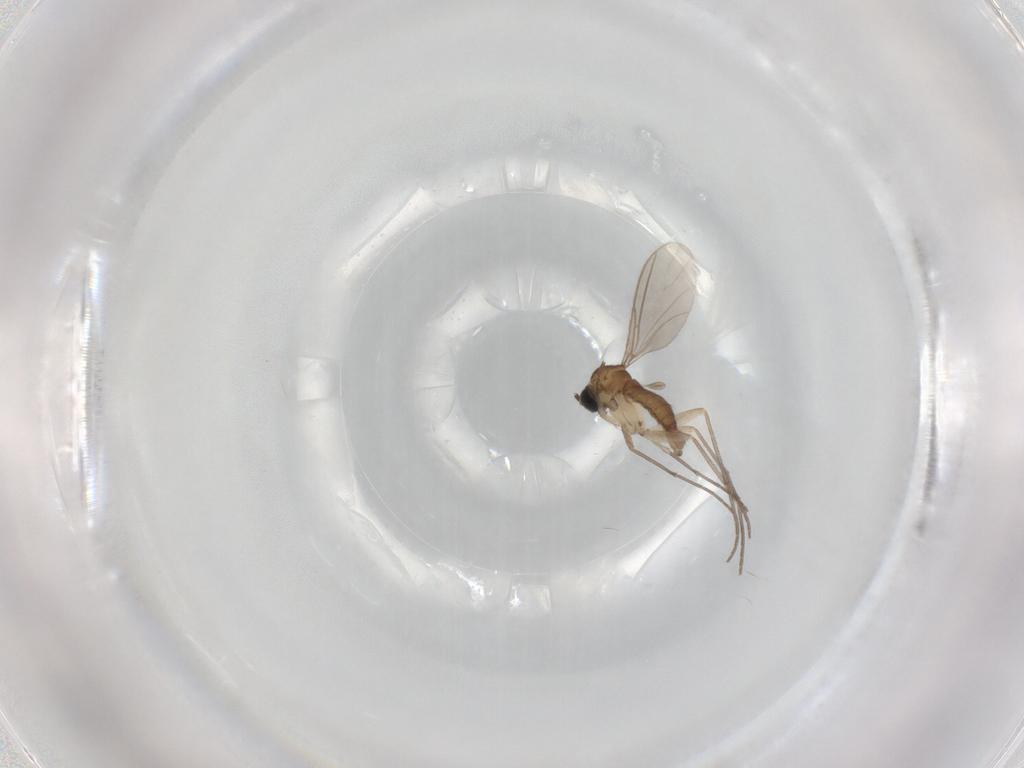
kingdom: Animalia
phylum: Arthropoda
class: Insecta
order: Diptera
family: Sciaridae
